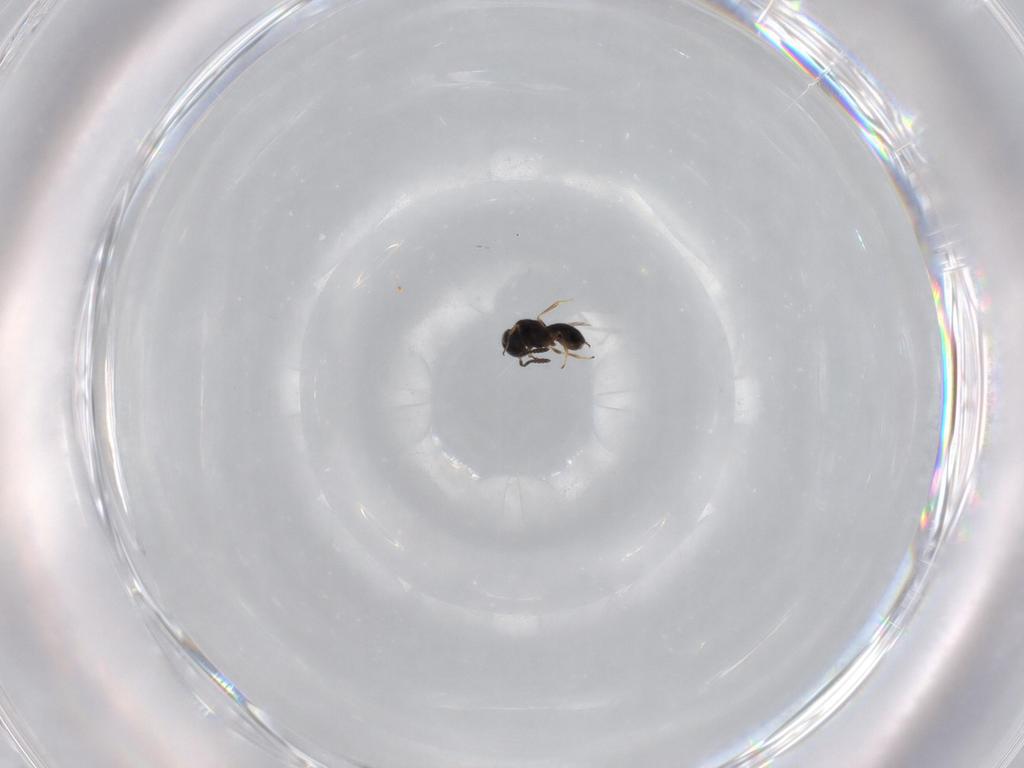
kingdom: Animalia
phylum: Arthropoda
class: Insecta
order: Hymenoptera
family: Scelionidae
